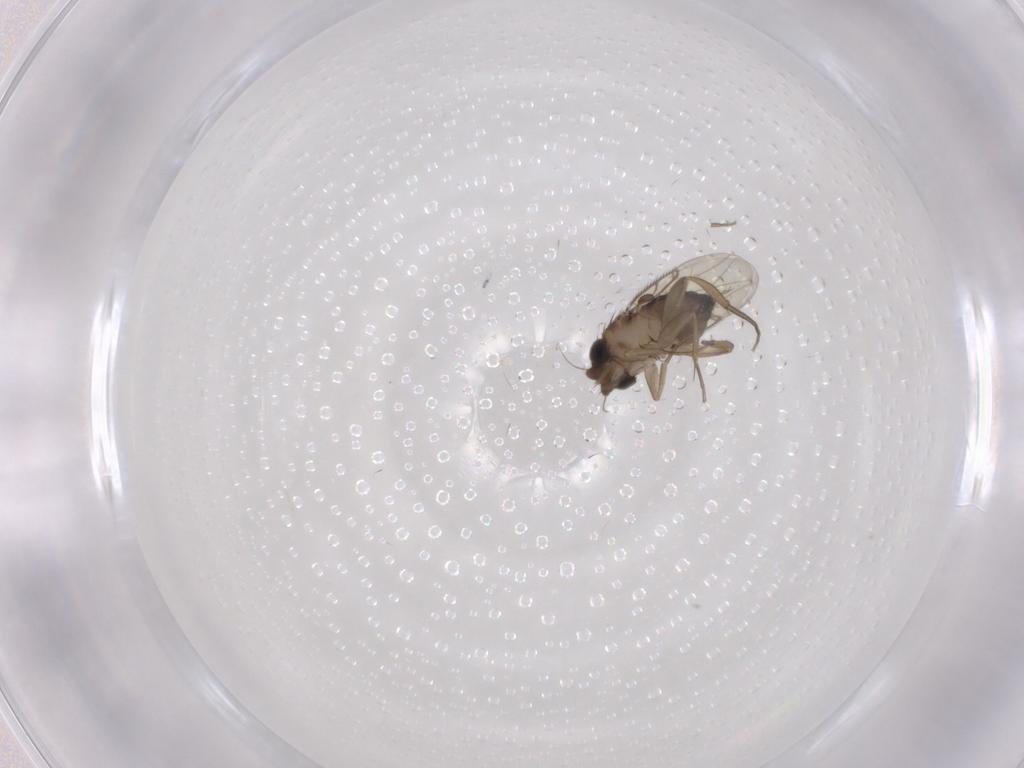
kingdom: Animalia
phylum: Arthropoda
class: Insecta
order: Diptera
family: Phoridae
